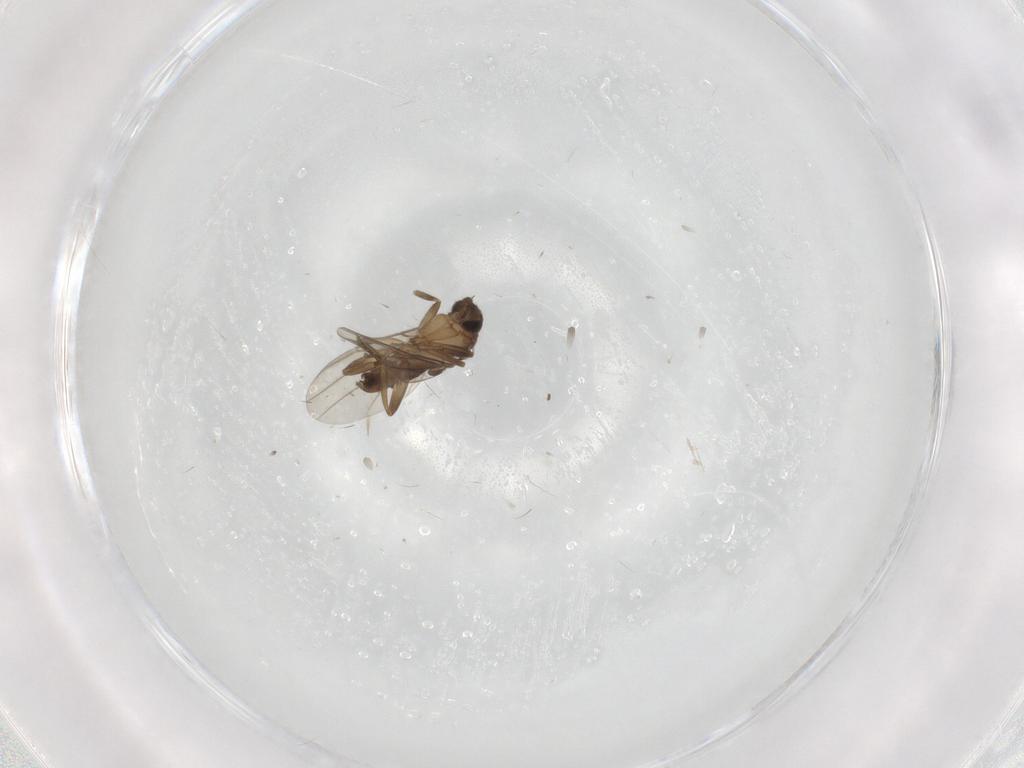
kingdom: Animalia
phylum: Arthropoda
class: Insecta
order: Diptera
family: Phoridae
